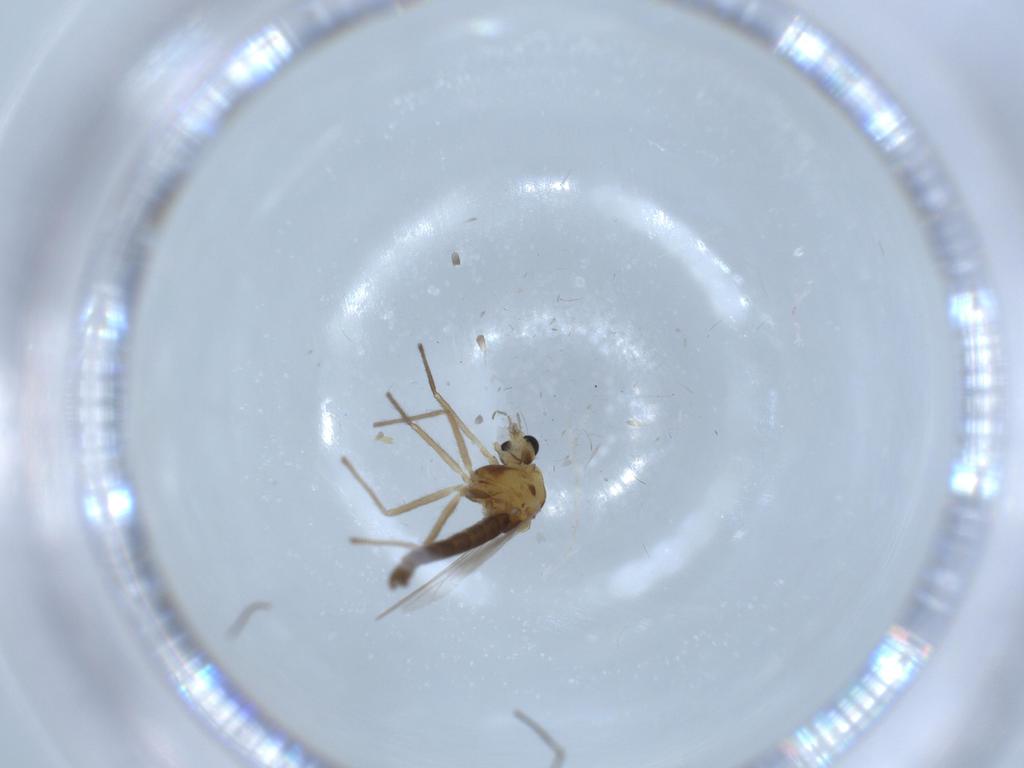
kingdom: Animalia
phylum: Arthropoda
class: Insecta
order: Diptera
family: Chironomidae
